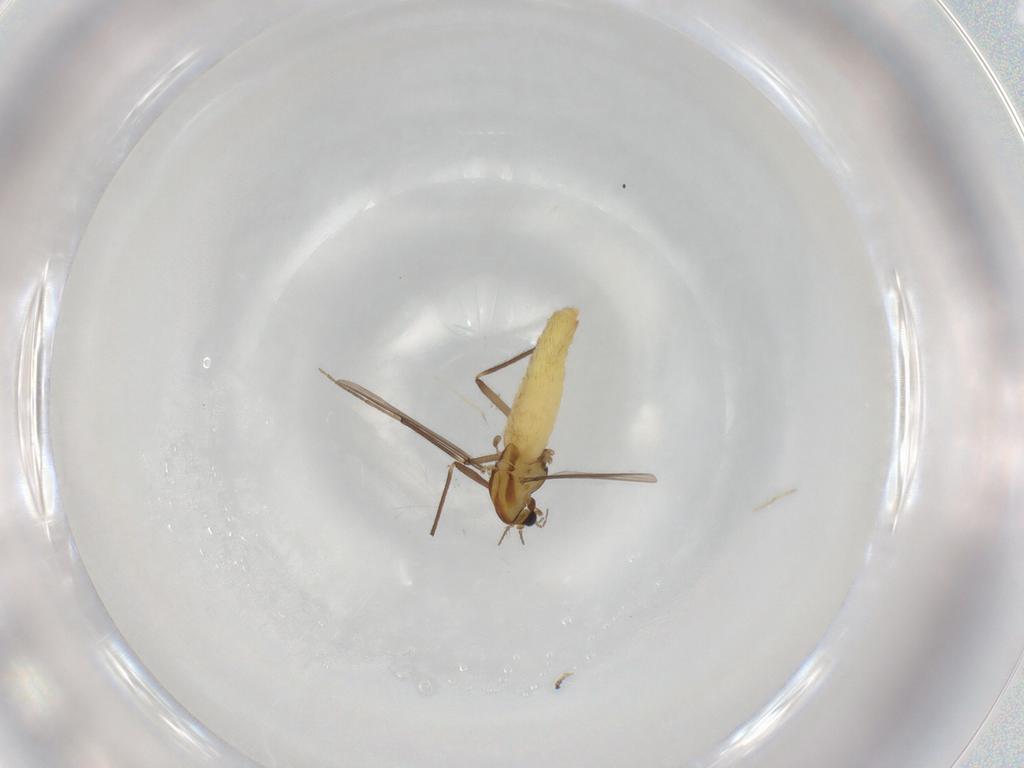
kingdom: Animalia
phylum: Arthropoda
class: Insecta
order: Diptera
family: Chironomidae
